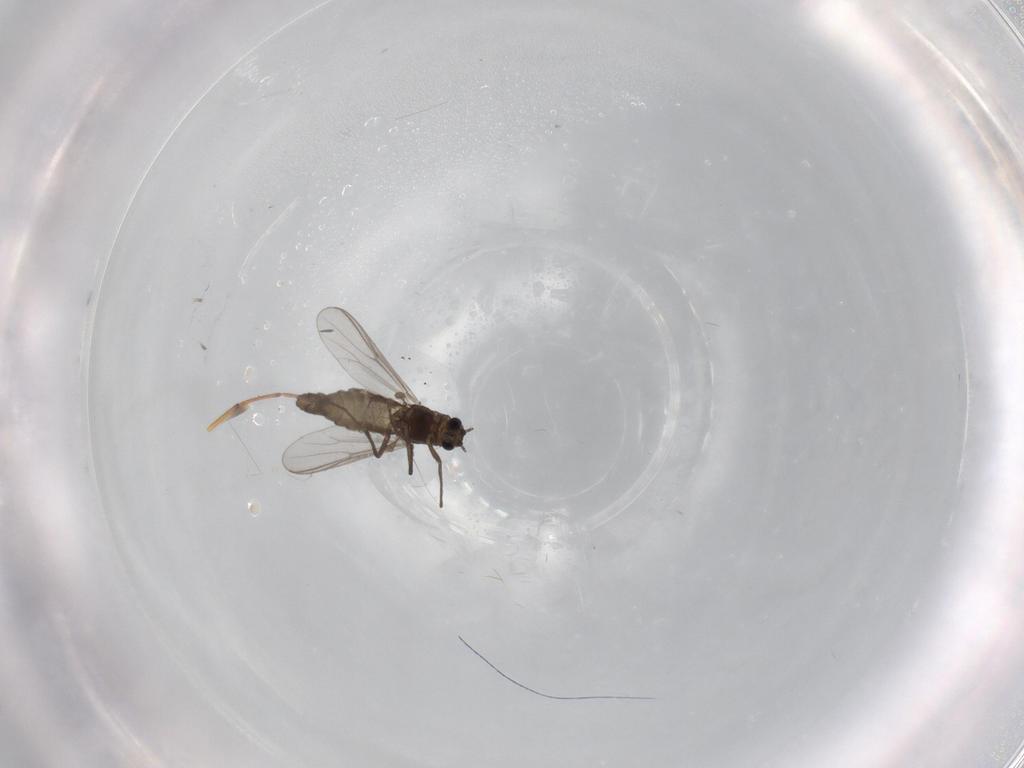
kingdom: Animalia
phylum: Arthropoda
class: Insecta
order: Diptera
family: Chironomidae
